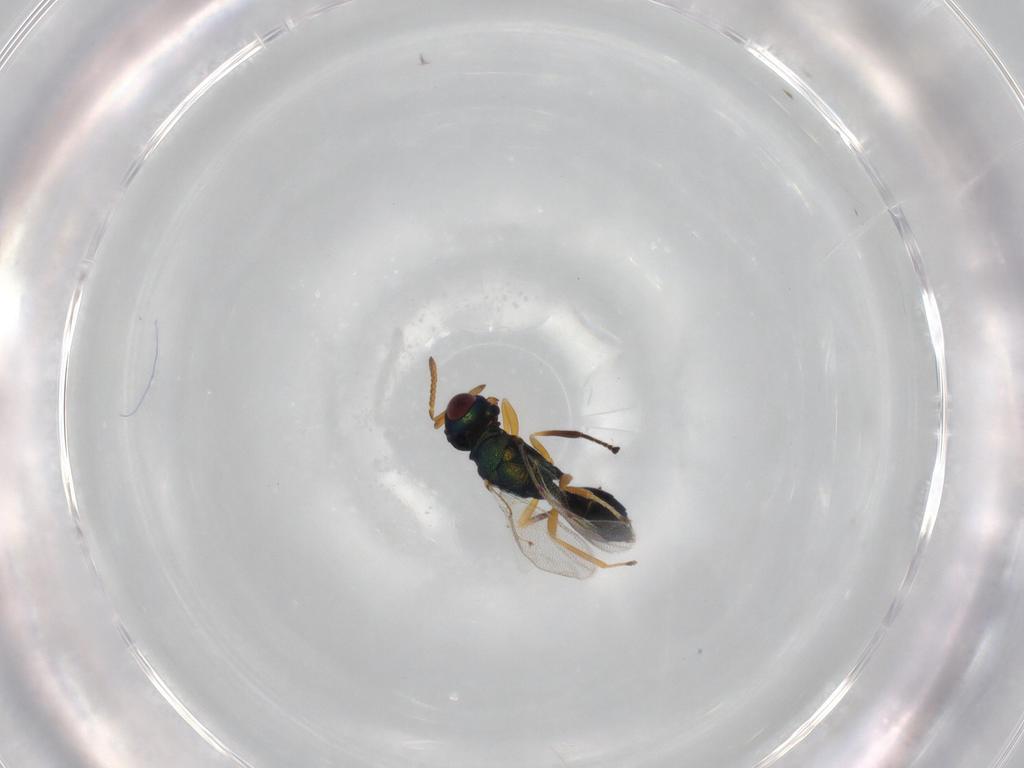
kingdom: Animalia
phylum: Arthropoda
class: Insecta
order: Hymenoptera
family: Pteromalidae
